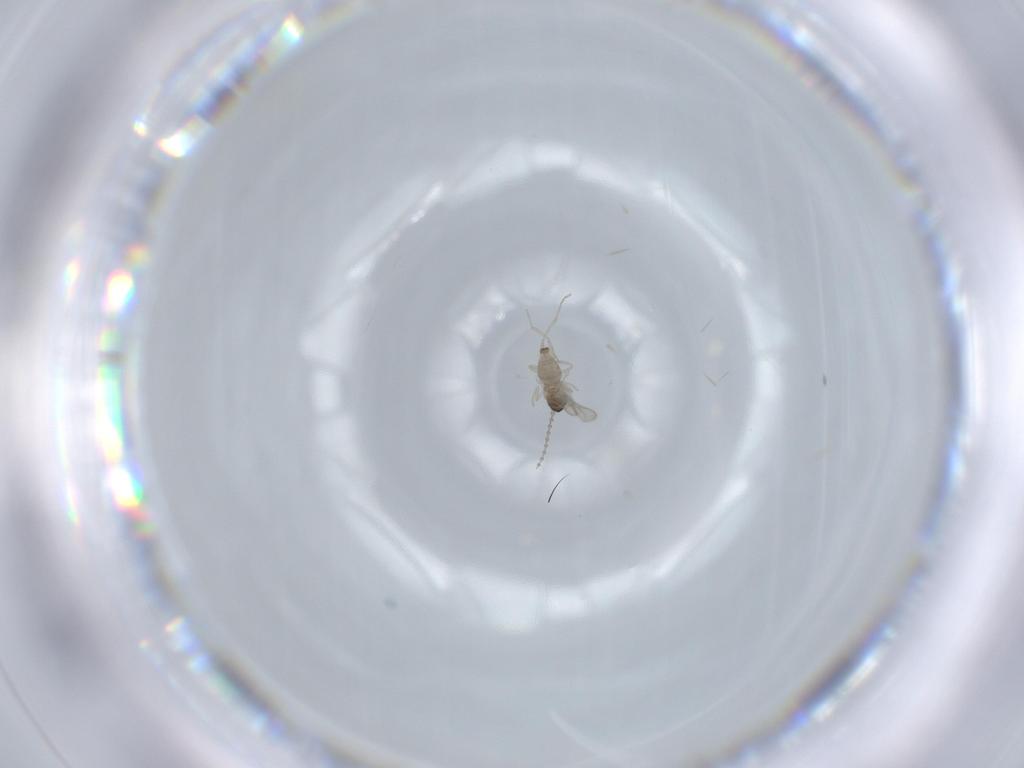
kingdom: Animalia
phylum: Arthropoda
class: Insecta
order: Diptera
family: Cecidomyiidae
